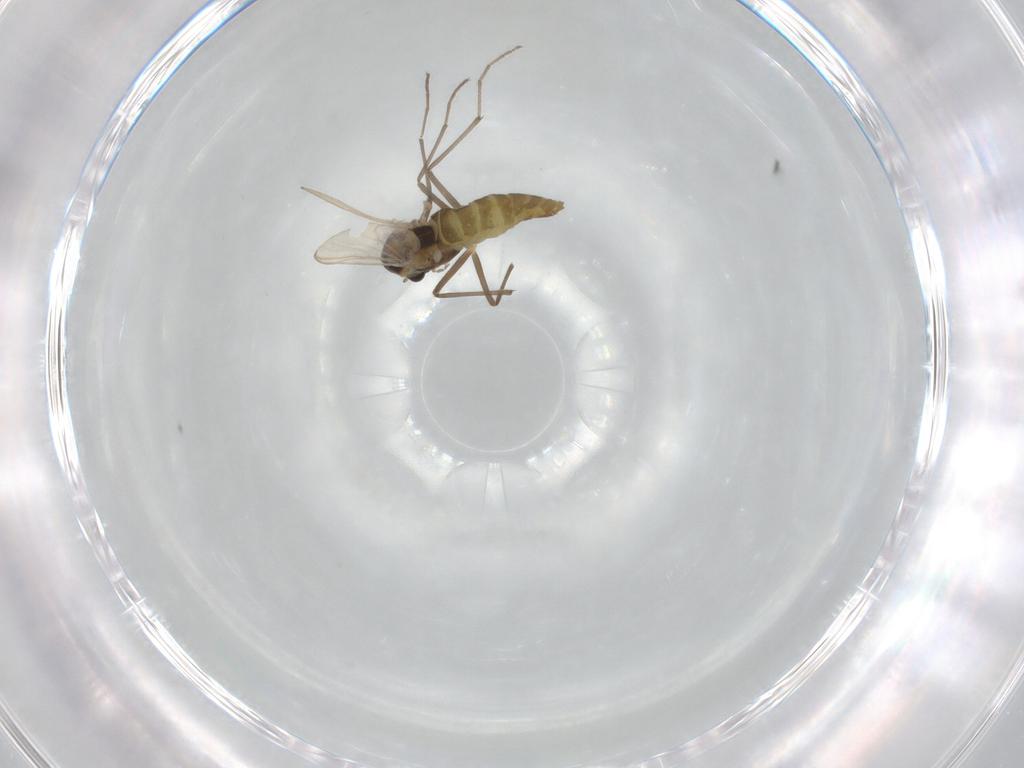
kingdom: Animalia
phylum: Arthropoda
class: Insecta
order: Diptera
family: Chironomidae
